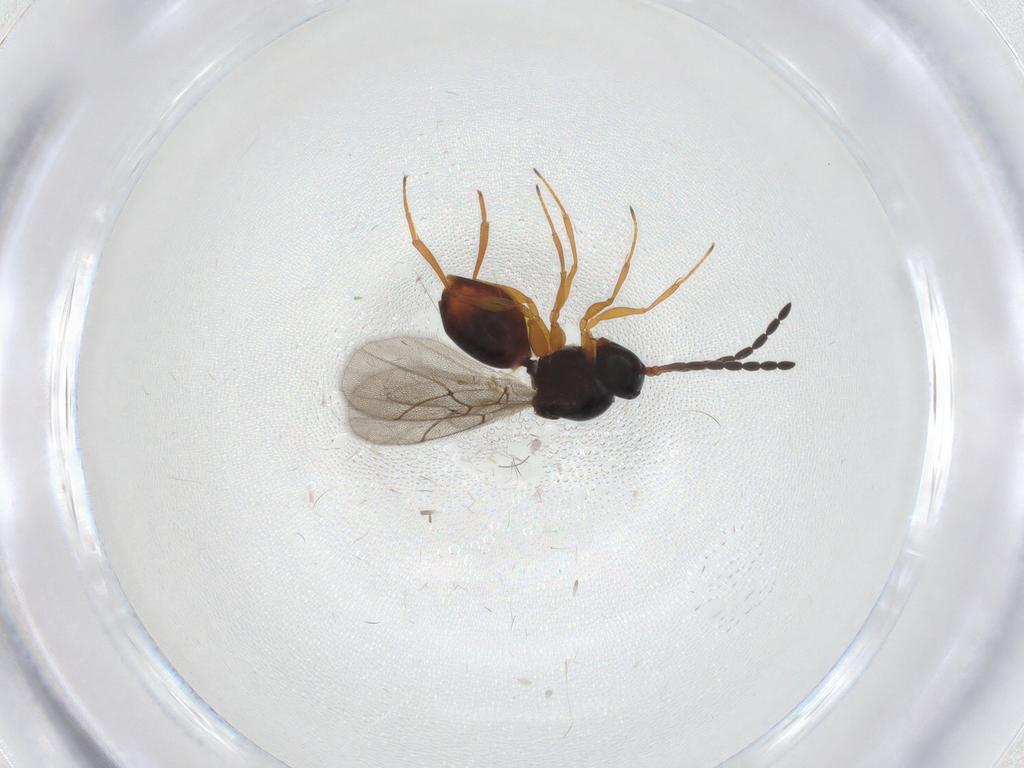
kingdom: Animalia
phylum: Arthropoda
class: Insecta
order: Hymenoptera
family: Figitidae
